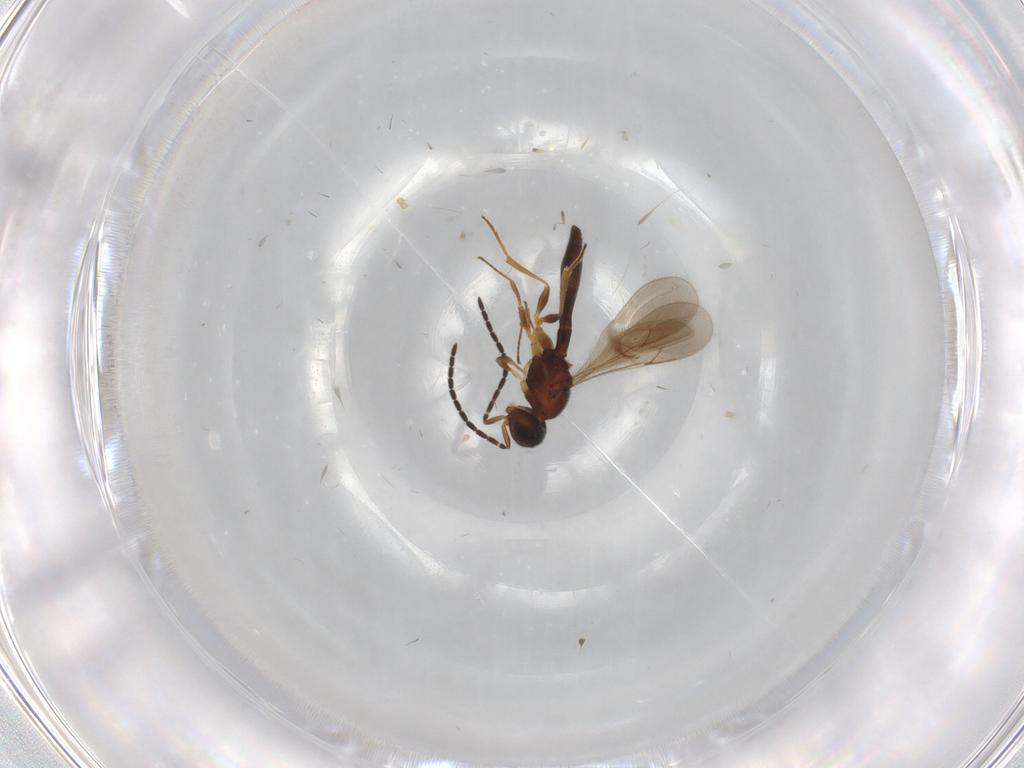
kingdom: Animalia
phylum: Arthropoda
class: Insecta
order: Hymenoptera
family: Scelionidae
